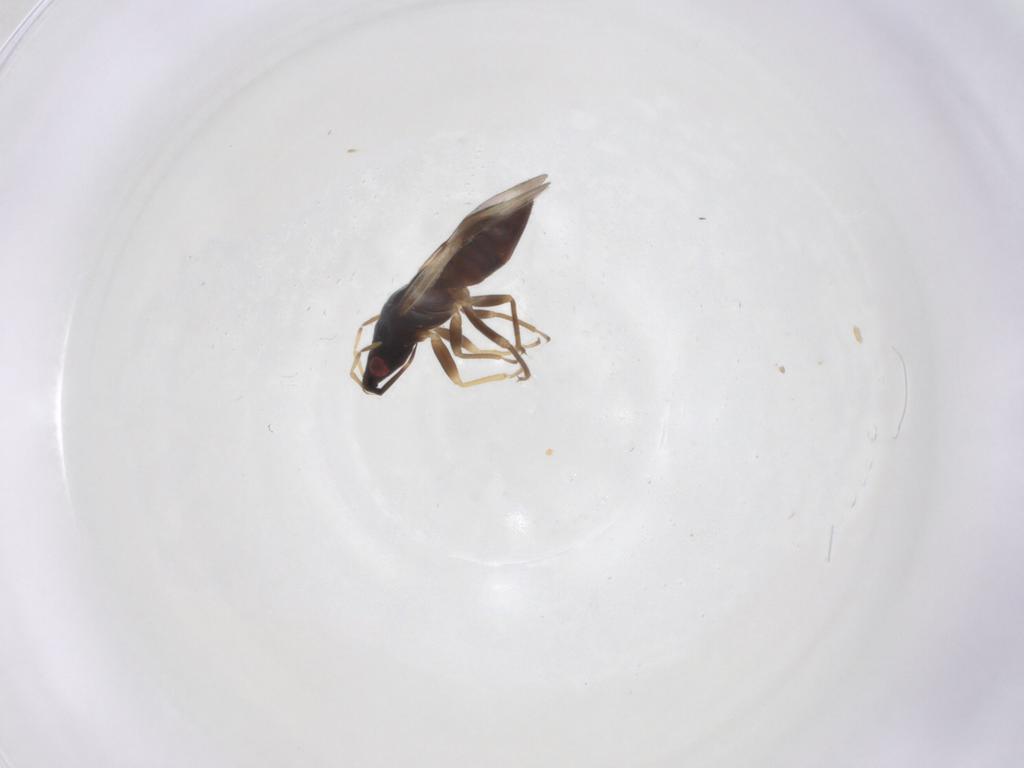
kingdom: Animalia
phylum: Arthropoda
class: Insecta
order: Hemiptera
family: Anthocoridae
